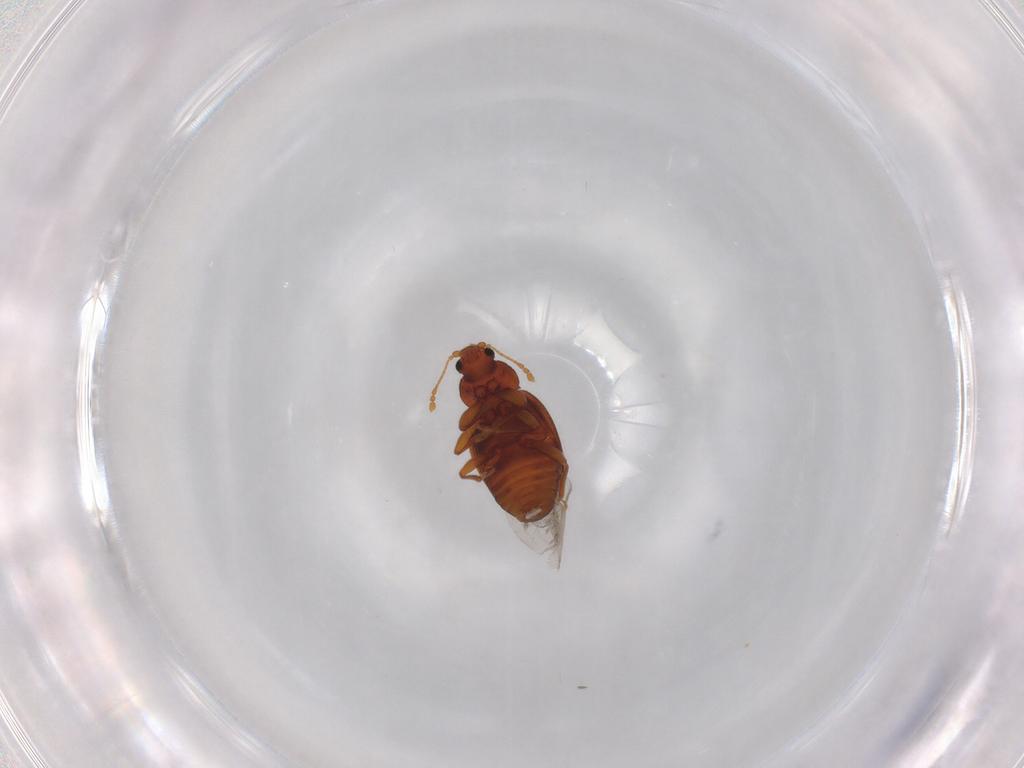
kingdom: Animalia
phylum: Arthropoda
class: Insecta
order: Coleoptera
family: Latridiidae
